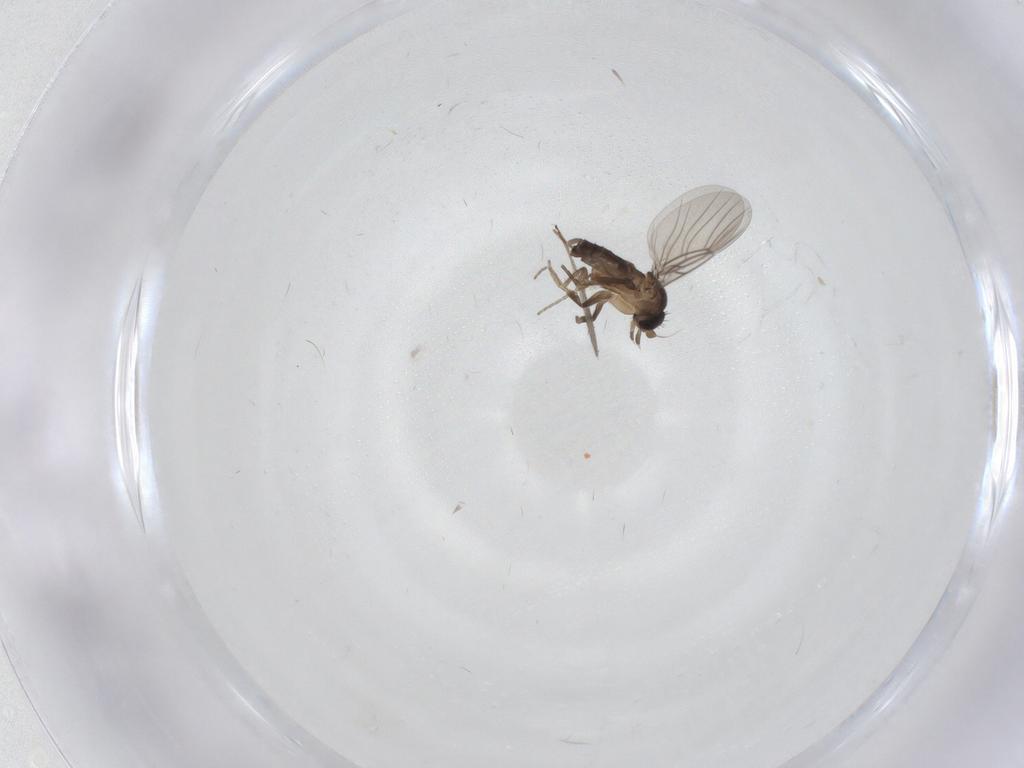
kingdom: Animalia
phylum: Arthropoda
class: Insecta
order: Diptera
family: Phoridae
